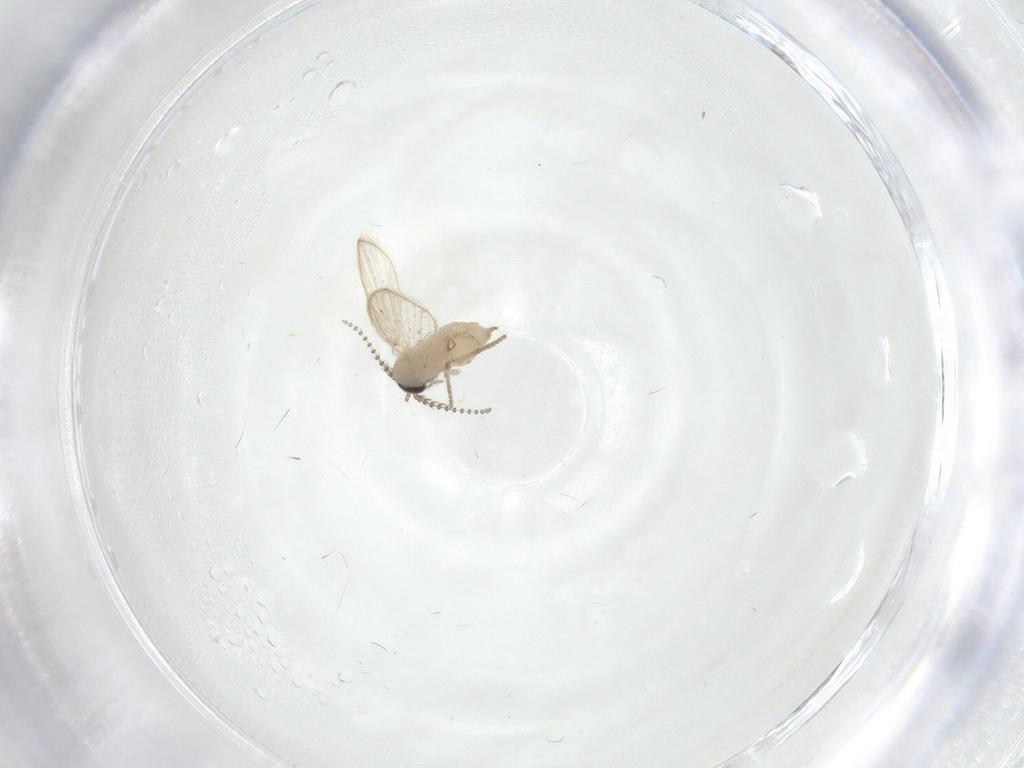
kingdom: Animalia
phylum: Arthropoda
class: Insecta
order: Diptera
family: Psychodidae
